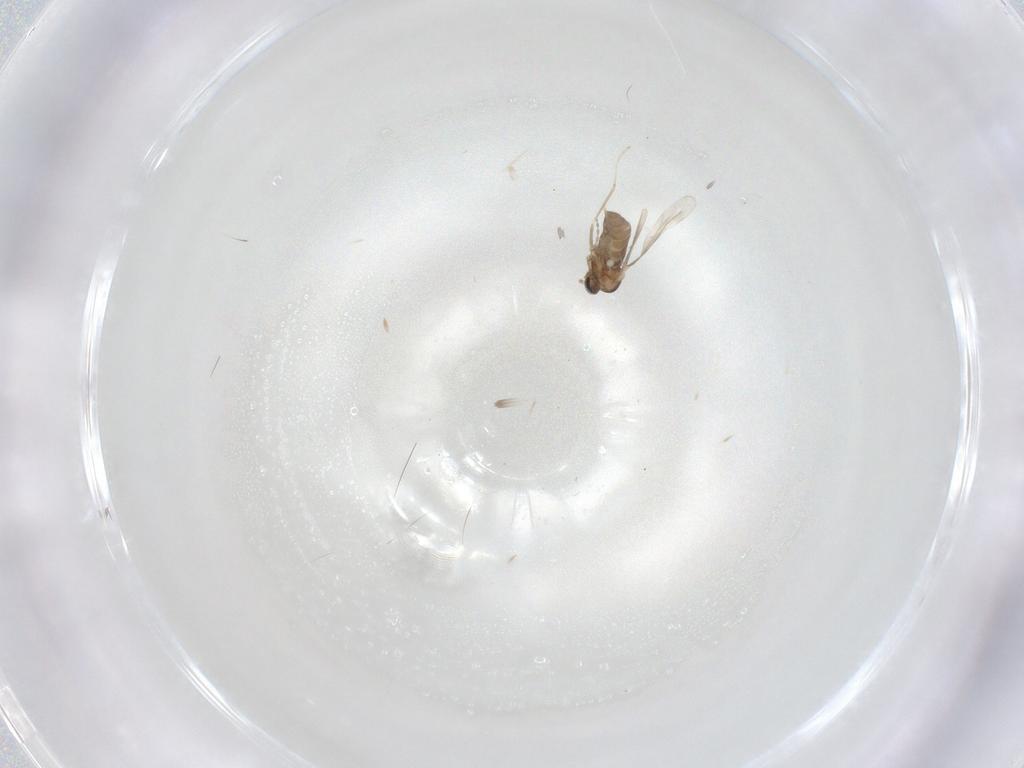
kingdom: Animalia
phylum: Arthropoda
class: Insecta
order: Diptera
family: Cecidomyiidae
